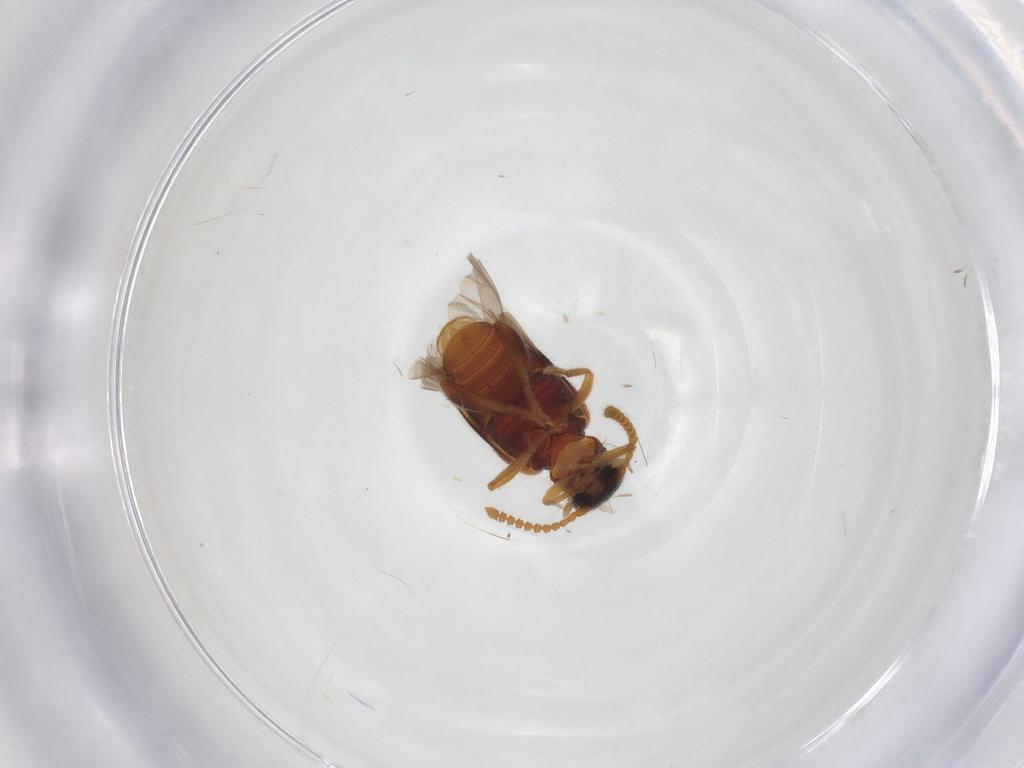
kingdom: Animalia
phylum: Arthropoda
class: Insecta
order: Coleoptera
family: Aderidae
